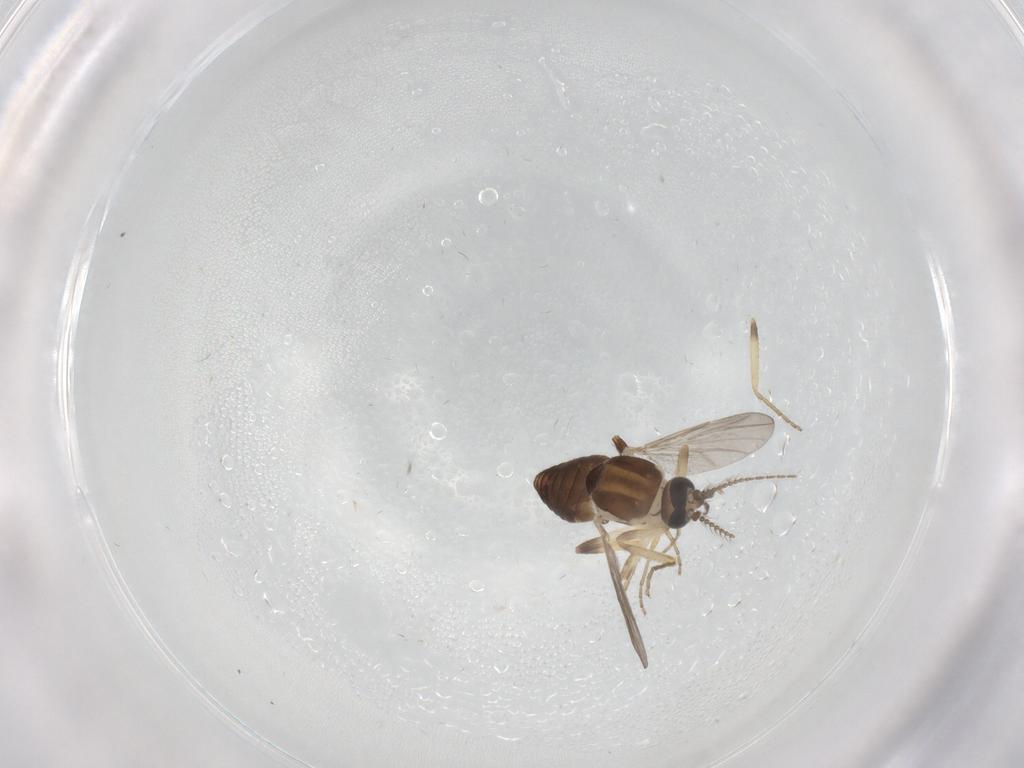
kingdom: Animalia
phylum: Arthropoda
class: Insecta
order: Diptera
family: Ceratopogonidae
